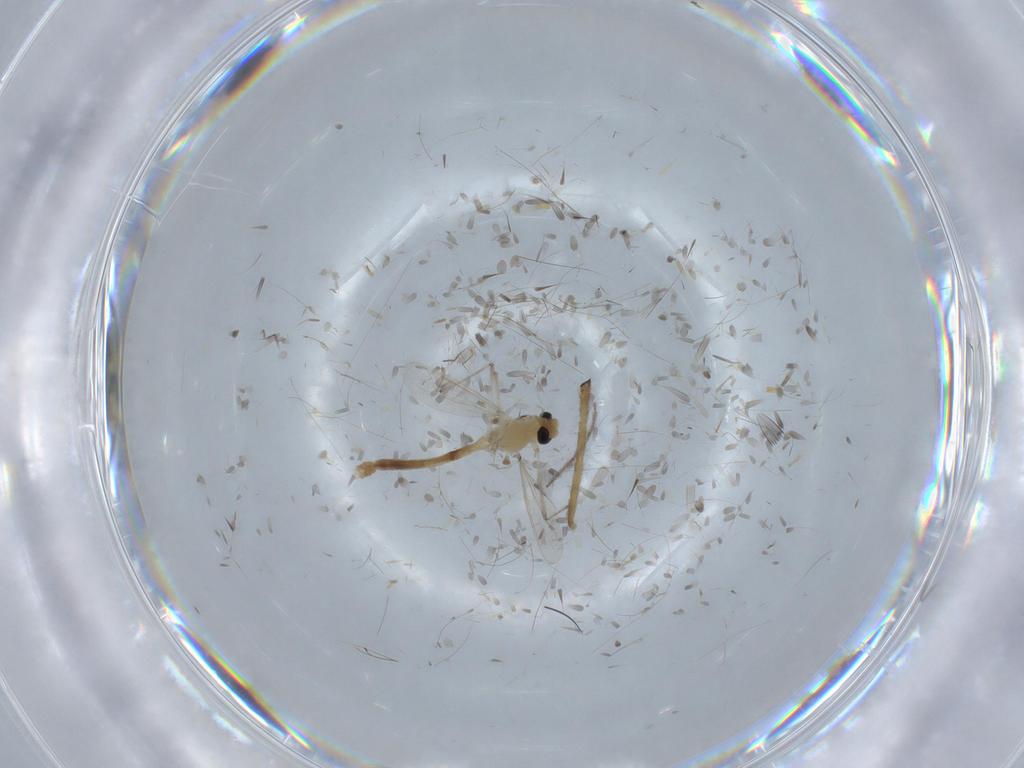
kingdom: Animalia
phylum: Arthropoda
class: Insecta
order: Diptera
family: Chironomidae
